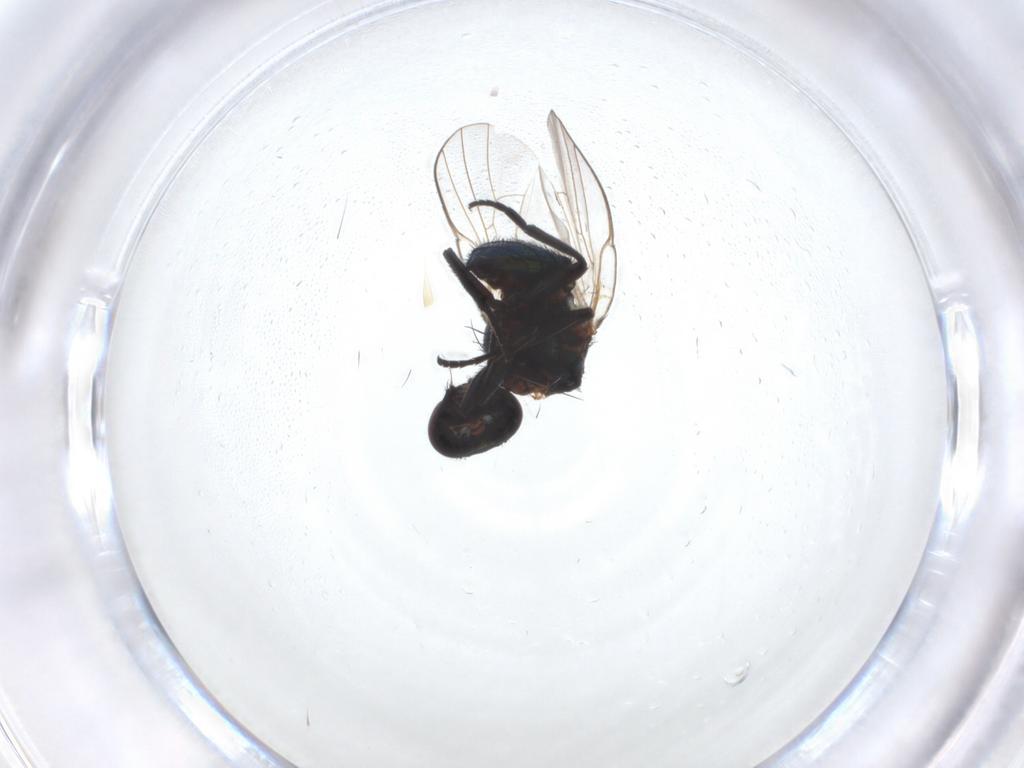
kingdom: Animalia
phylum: Arthropoda
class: Insecta
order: Diptera
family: Agromyzidae
